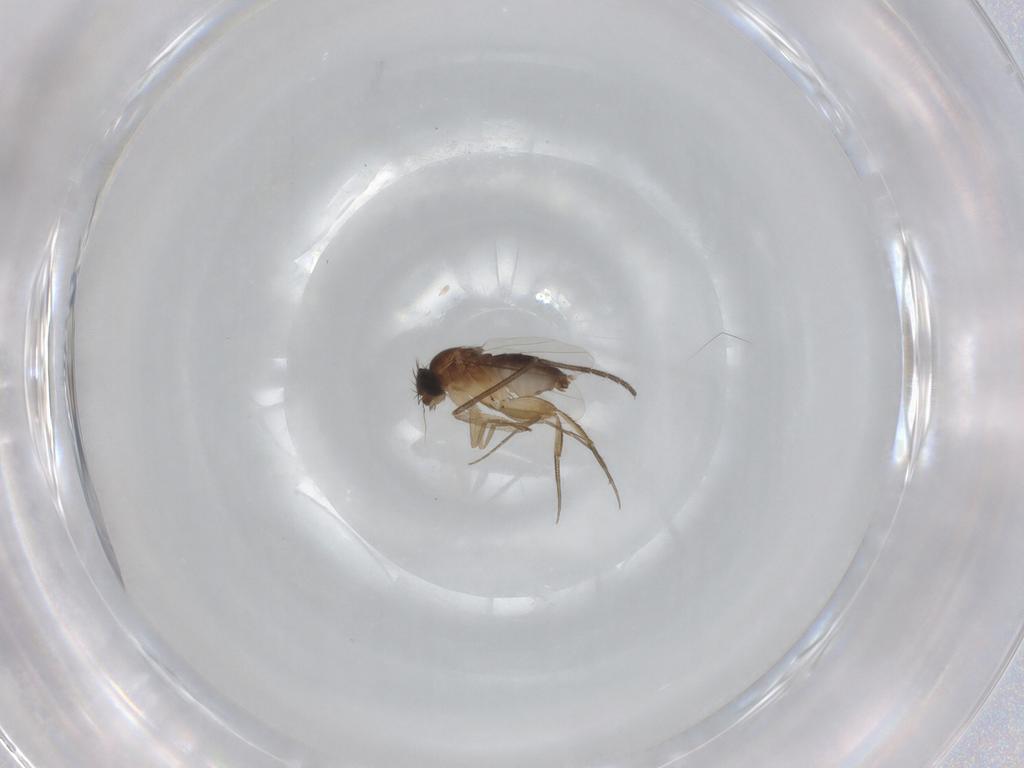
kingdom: Animalia
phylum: Arthropoda
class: Insecta
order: Diptera
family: Phoridae
